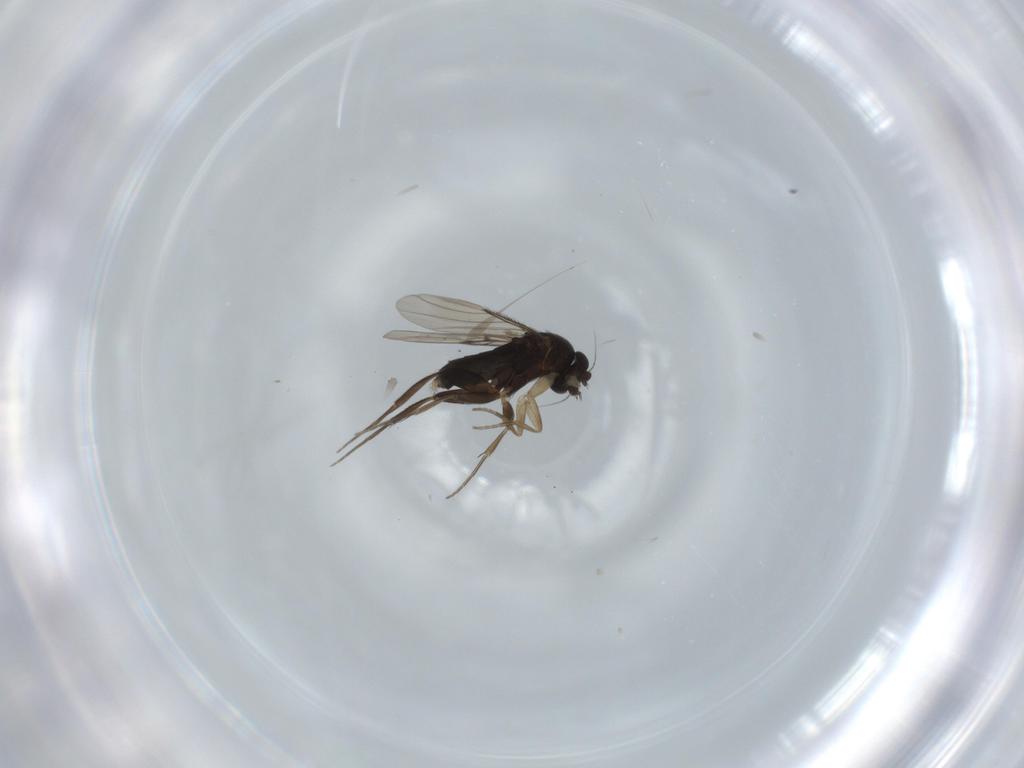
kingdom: Animalia
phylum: Arthropoda
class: Insecta
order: Diptera
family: Phoridae
